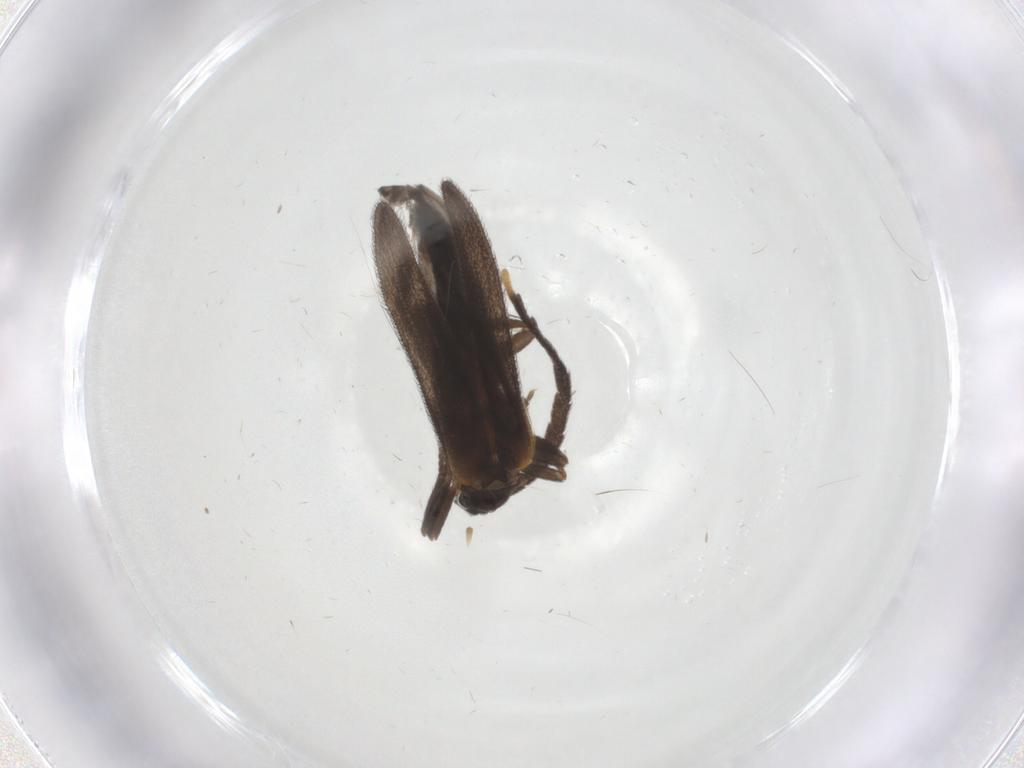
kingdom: Animalia
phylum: Arthropoda
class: Insecta
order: Coleoptera
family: Lycidae
